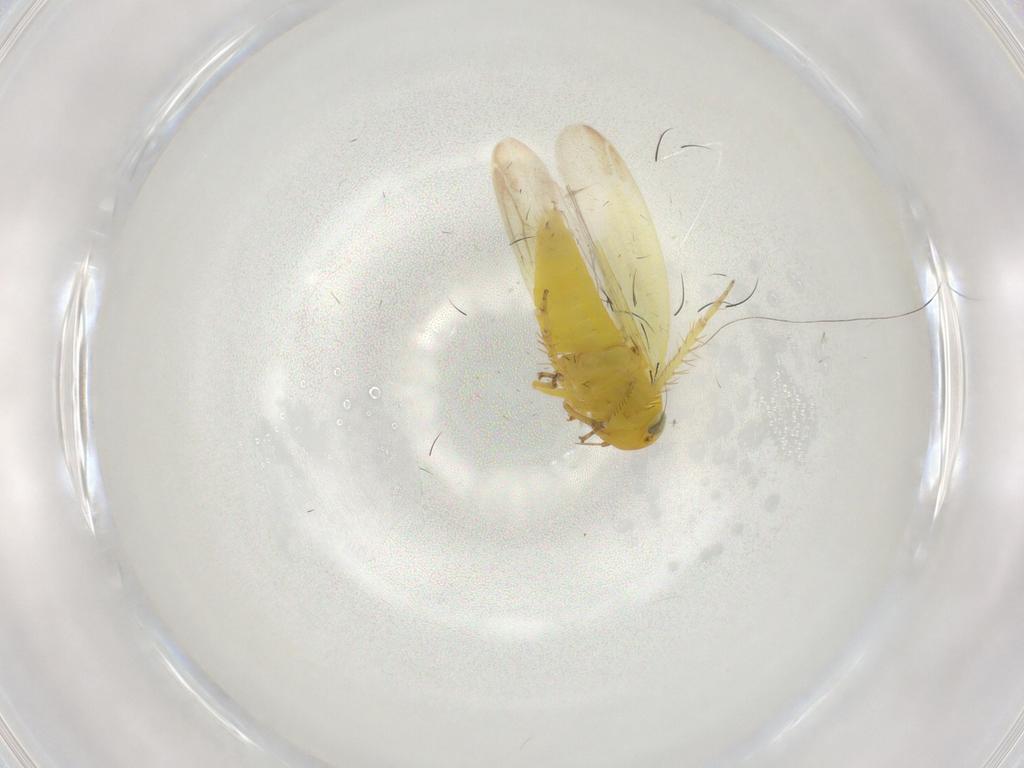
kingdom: Animalia
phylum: Arthropoda
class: Insecta
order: Hemiptera
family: Cicadellidae
